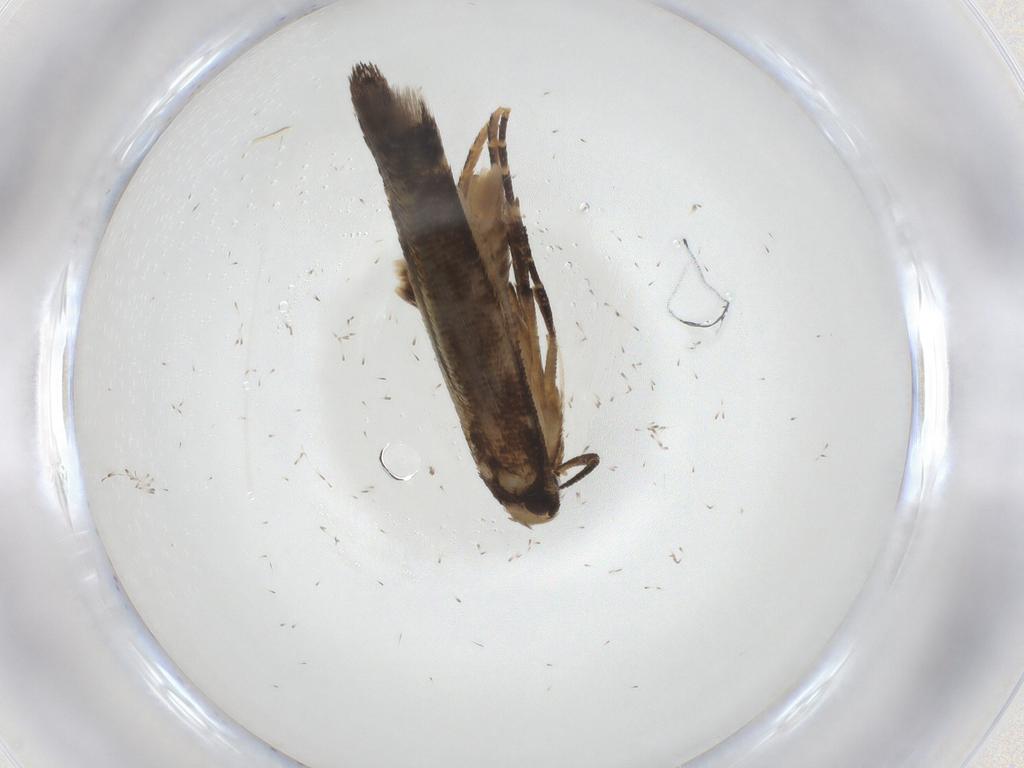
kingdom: Animalia
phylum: Arthropoda
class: Insecta
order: Lepidoptera
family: Cosmopterigidae
